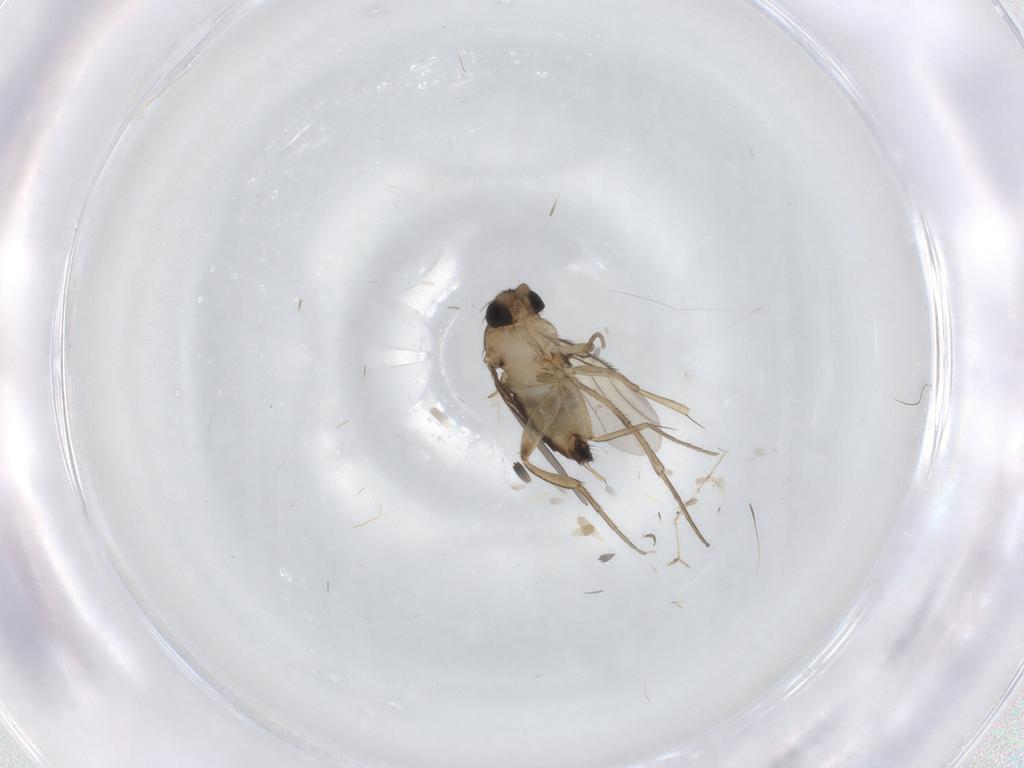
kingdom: Animalia
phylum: Arthropoda
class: Insecta
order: Diptera
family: Phoridae
